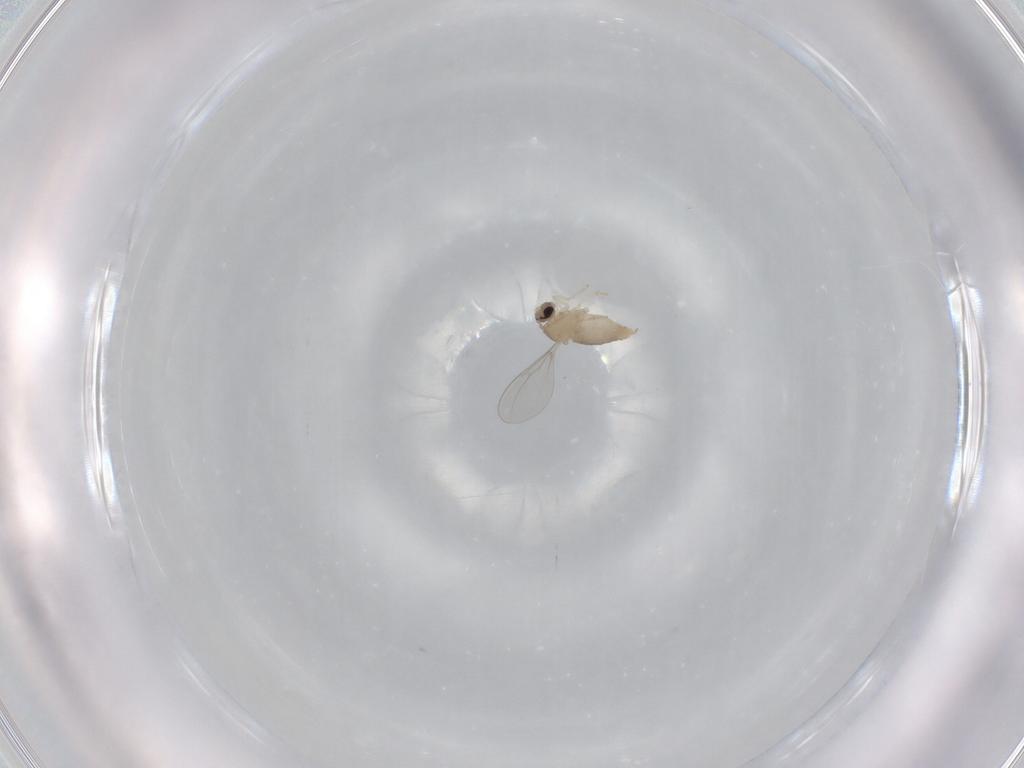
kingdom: Animalia
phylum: Arthropoda
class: Insecta
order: Diptera
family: Cecidomyiidae
